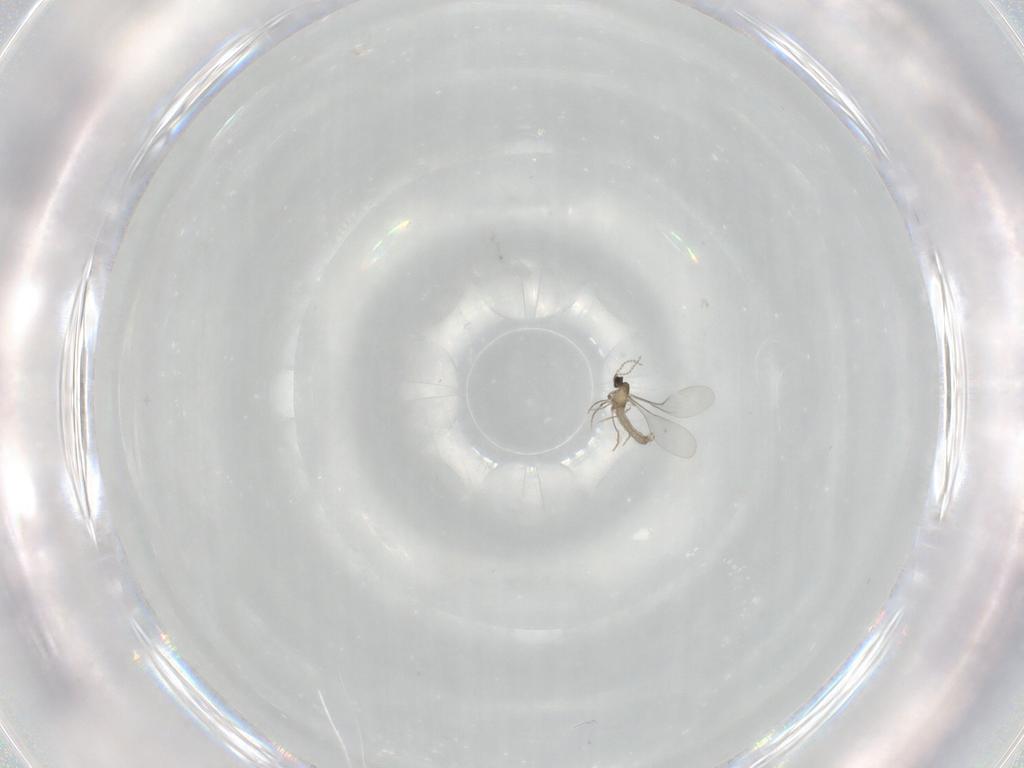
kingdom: Animalia
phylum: Arthropoda
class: Insecta
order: Diptera
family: Cecidomyiidae
